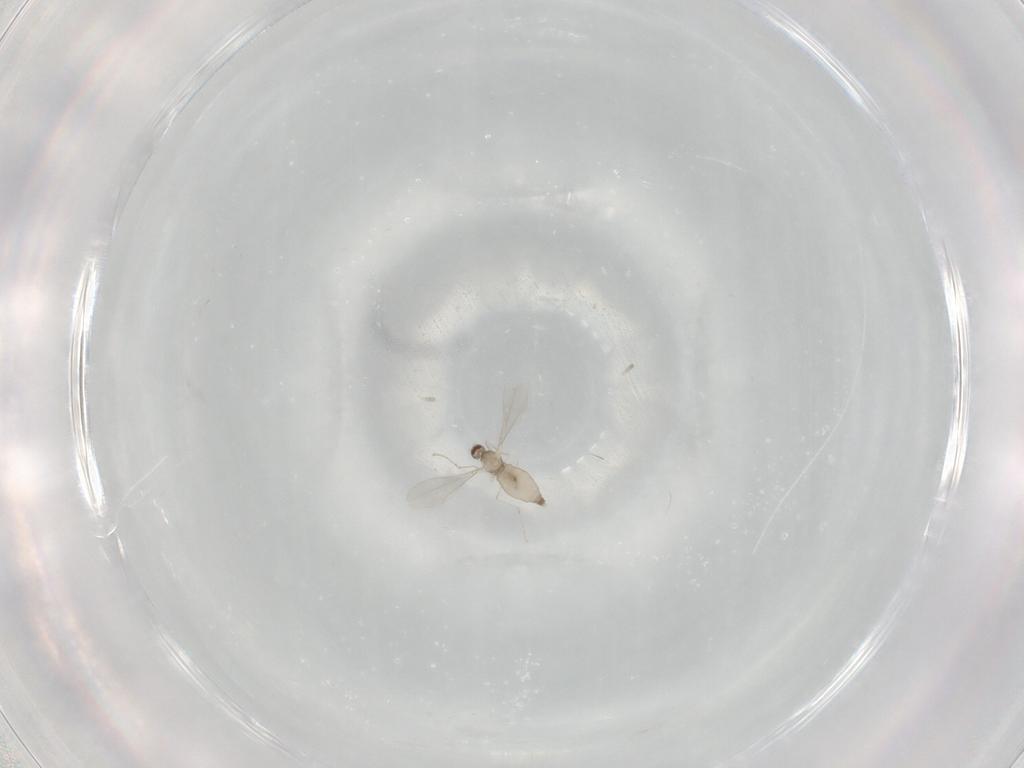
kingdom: Animalia
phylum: Arthropoda
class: Insecta
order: Diptera
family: Cecidomyiidae
